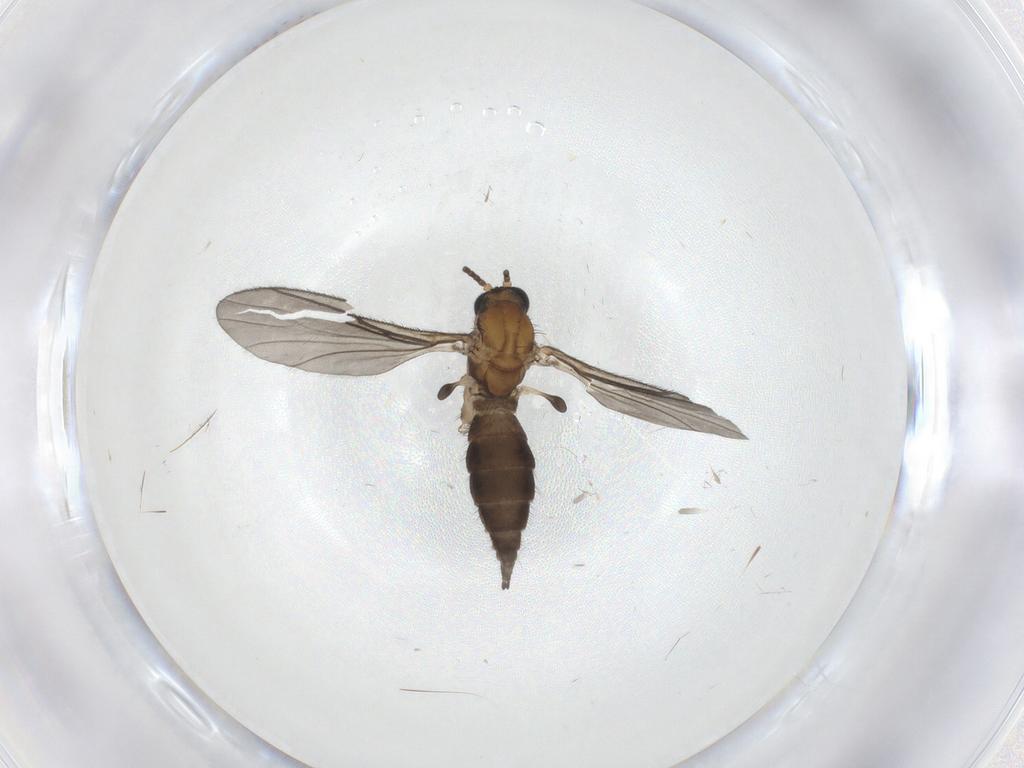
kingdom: Animalia
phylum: Arthropoda
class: Insecta
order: Diptera
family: Sciaridae
